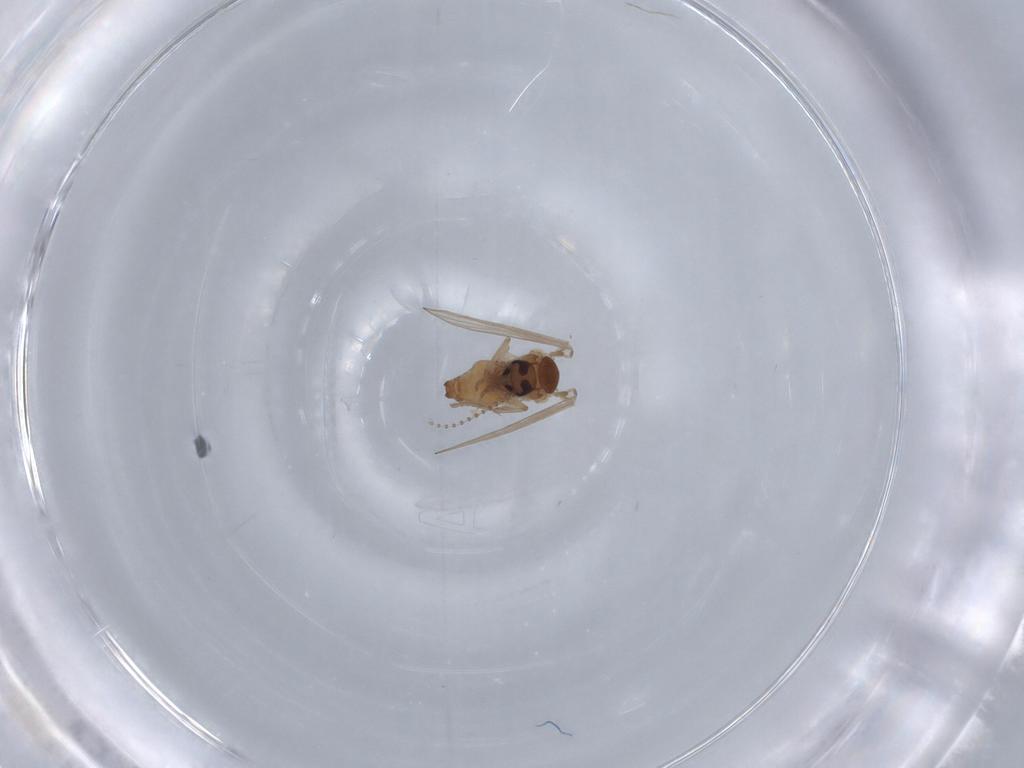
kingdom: Animalia
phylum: Arthropoda
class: Insecta
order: Diptera
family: Psychodidae
